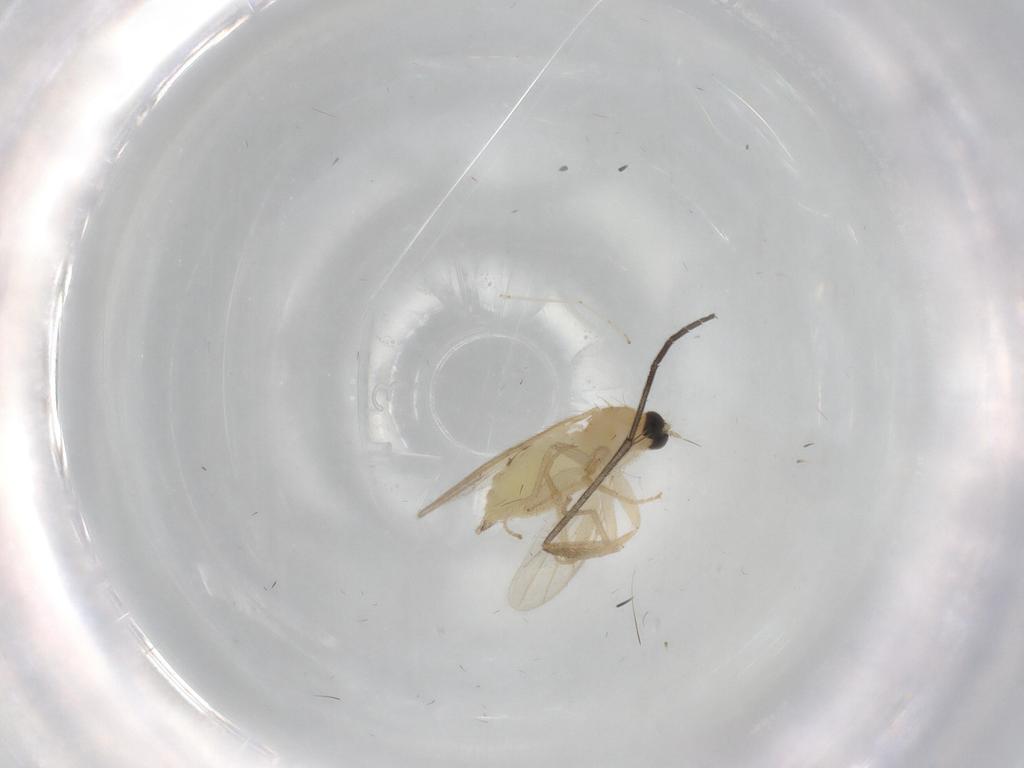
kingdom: Animalia
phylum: Arthropoda
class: Insecta
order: Diptera
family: Hybotidae
